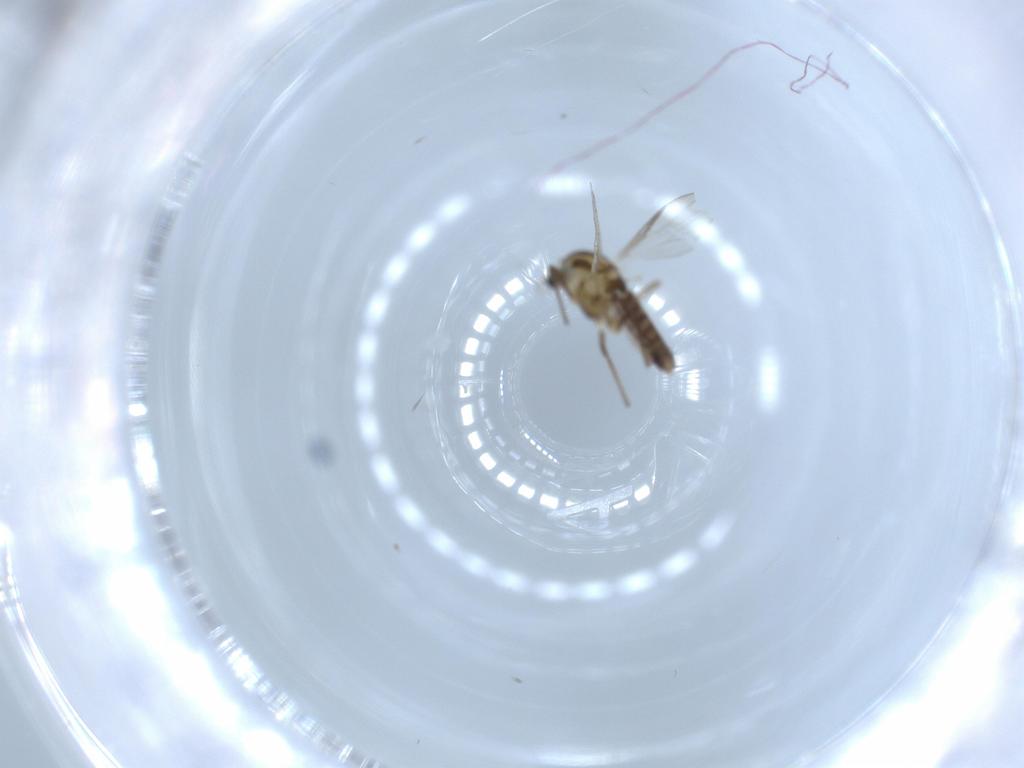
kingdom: Animalia
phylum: Arthropoda
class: Insecta
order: Diptera
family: Chironomidae
